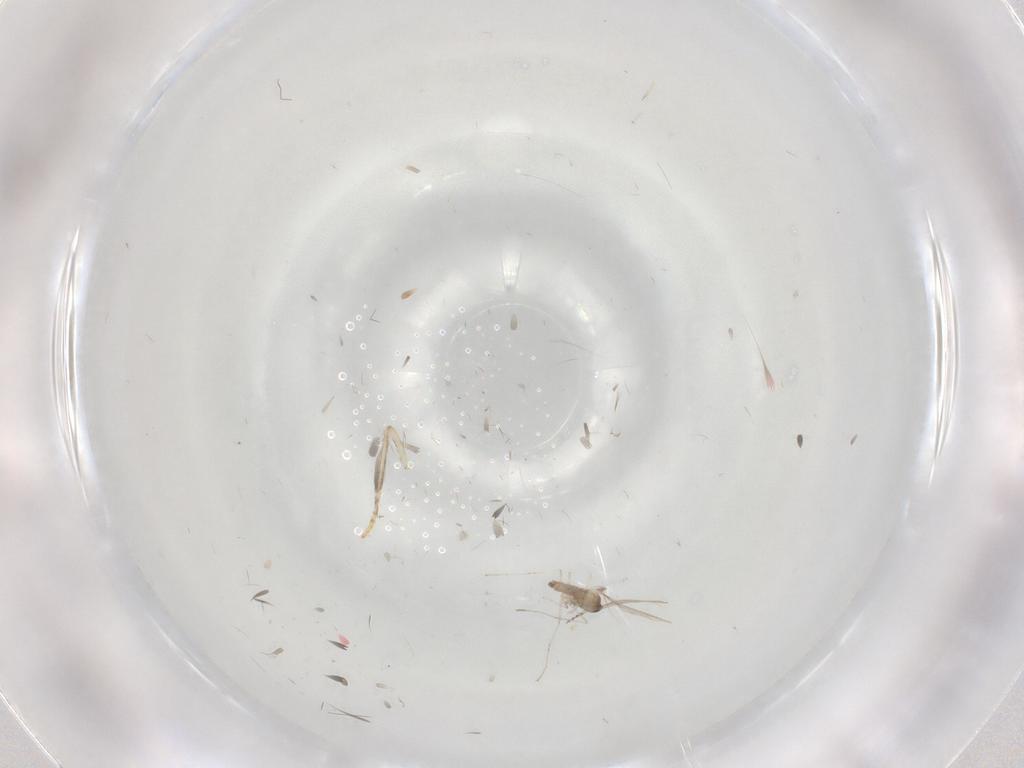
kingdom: Animalia
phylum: Arthropoda
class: Insecta
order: Diptera
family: Psychodidae
